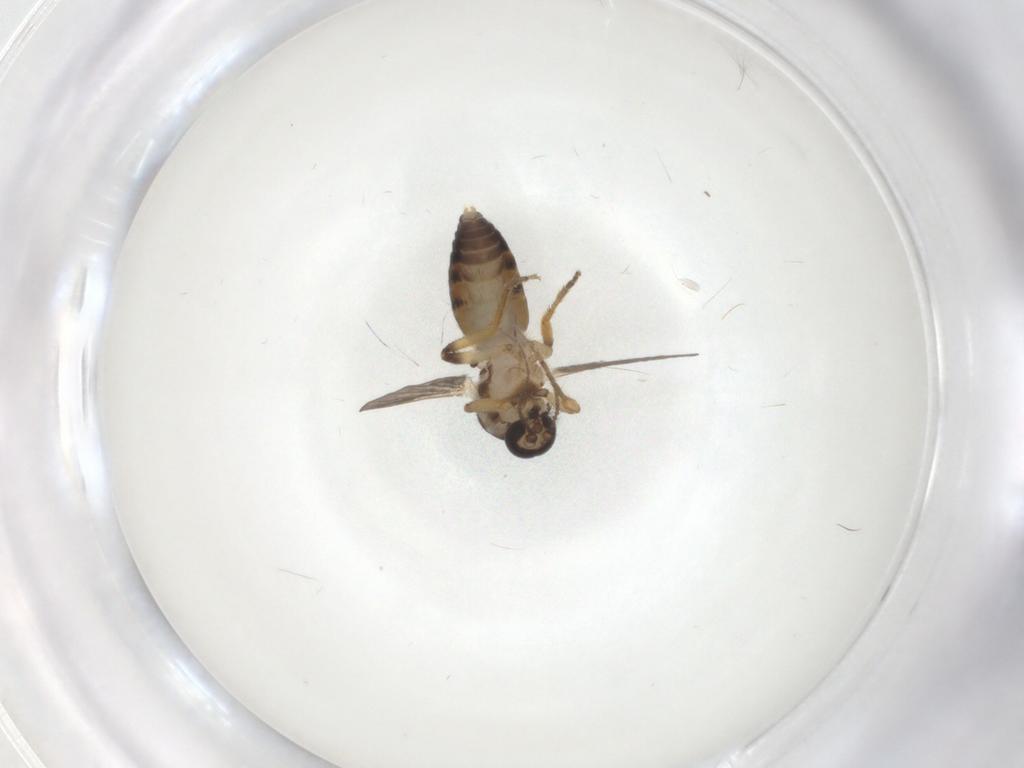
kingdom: Animalia
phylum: Arthropoda
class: Insecta
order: Diptera
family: Ceratopogonidae
